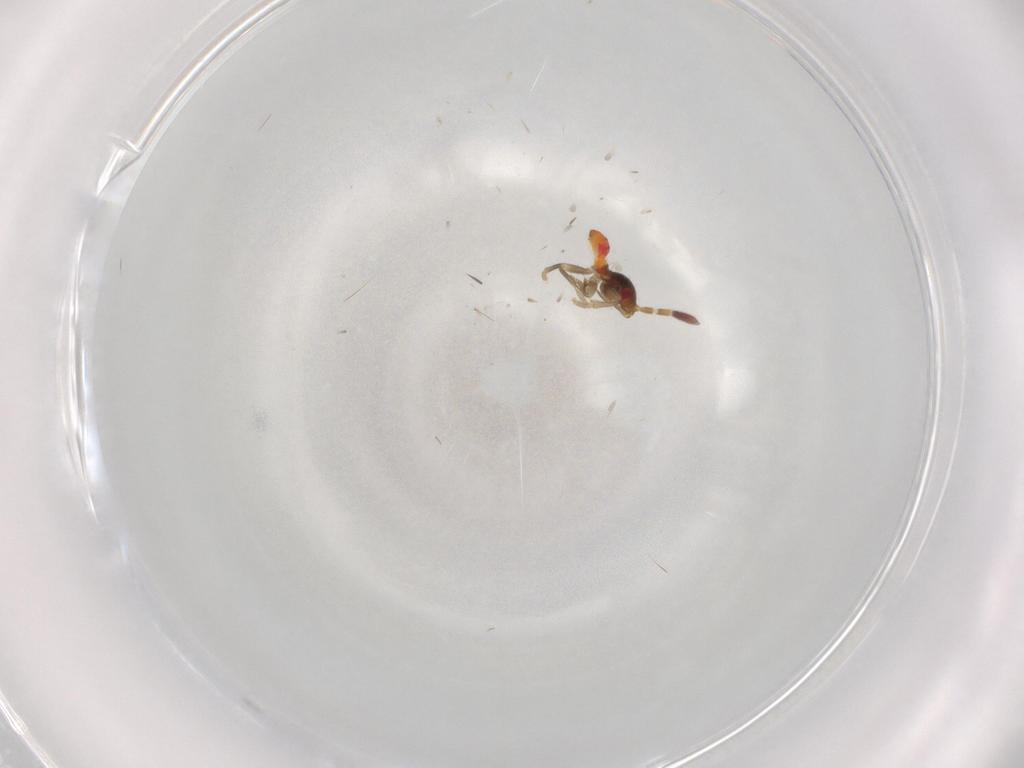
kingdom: Animalia
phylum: Arthropoda
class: Insecta
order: Hemiptera
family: Rhyparochromidae
